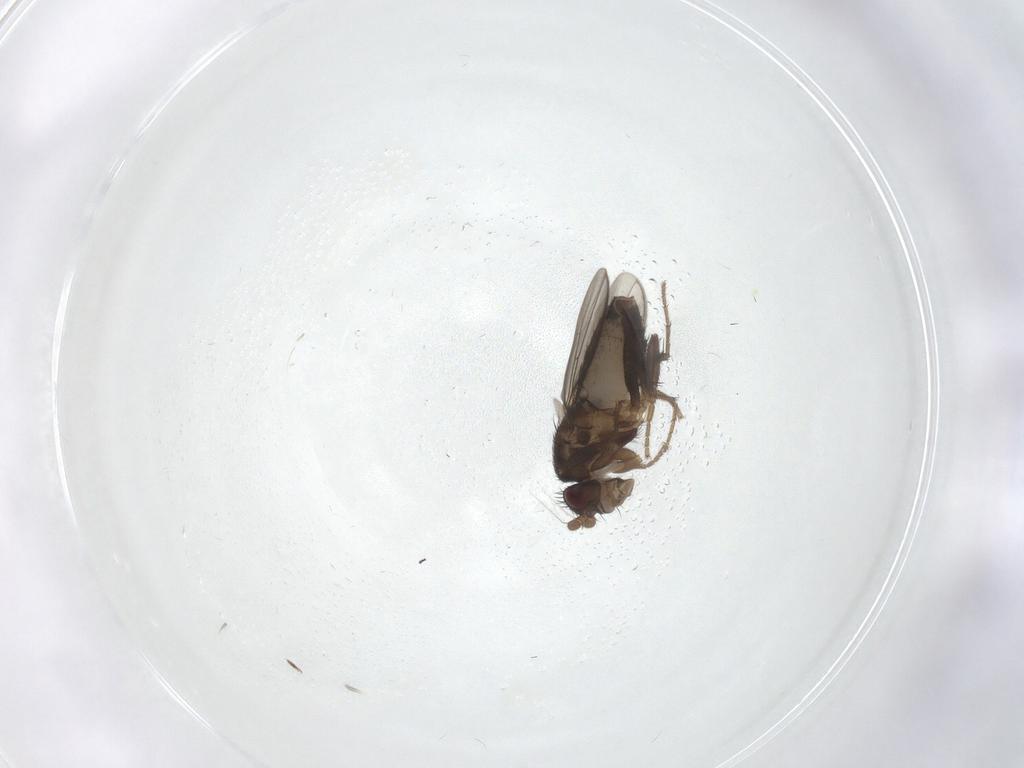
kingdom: Animalia
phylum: Arthropoda
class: Insecta
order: Diptera
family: Sphaeroceridae
